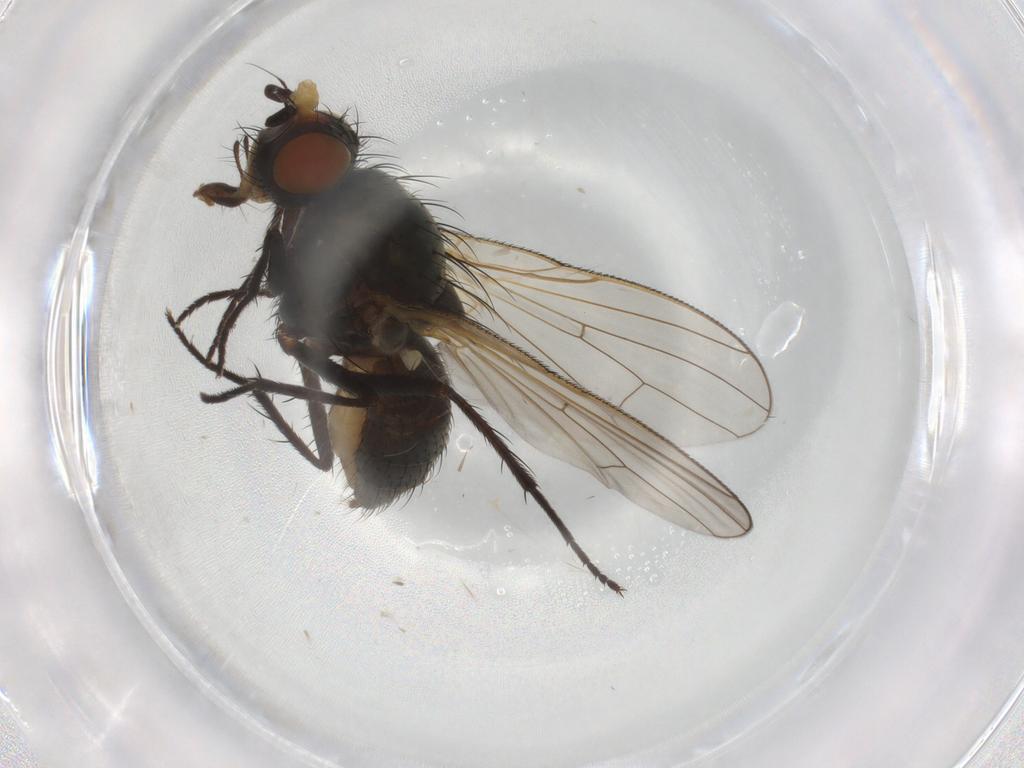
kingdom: Animalia
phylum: Arthropoda
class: Insecta
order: Diptera
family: Anthomyiidae
